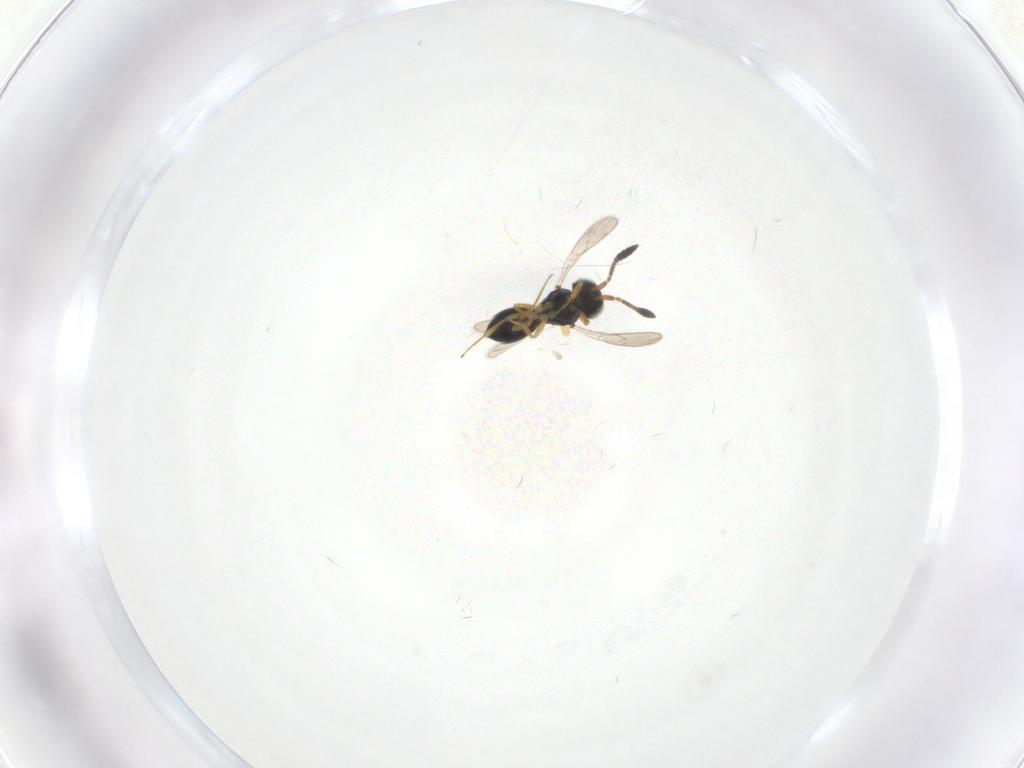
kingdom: Animalia
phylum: Arthropoda
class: Insecta
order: Hymenoptera
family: Scelionidae
